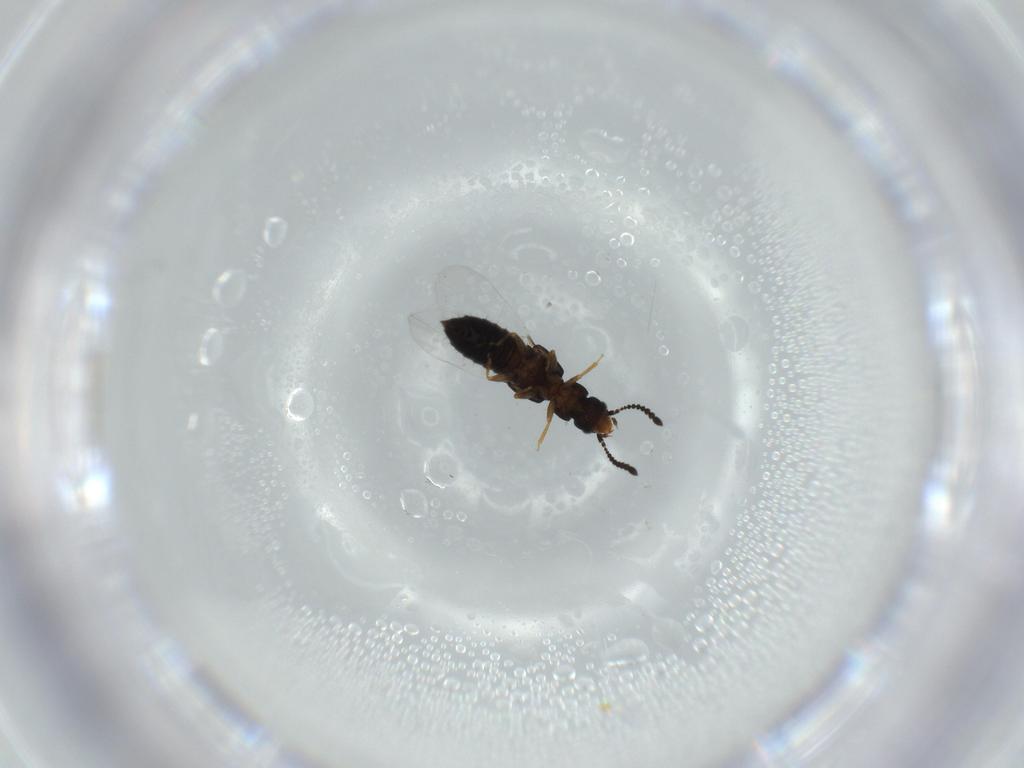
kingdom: Animalia
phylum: Arthropoda
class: Insecta
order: Coleoptera
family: Staphylinidae
